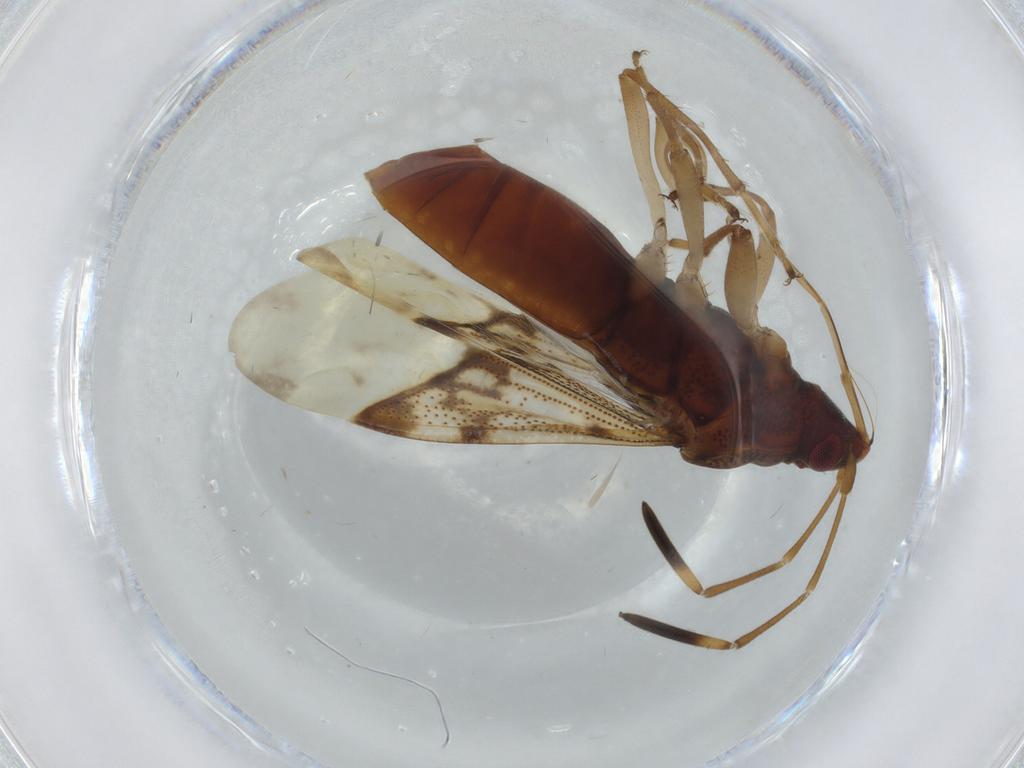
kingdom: Animalia
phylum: Arthropoda
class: Insecta
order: Hemiptera
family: Rhyparochromidae
